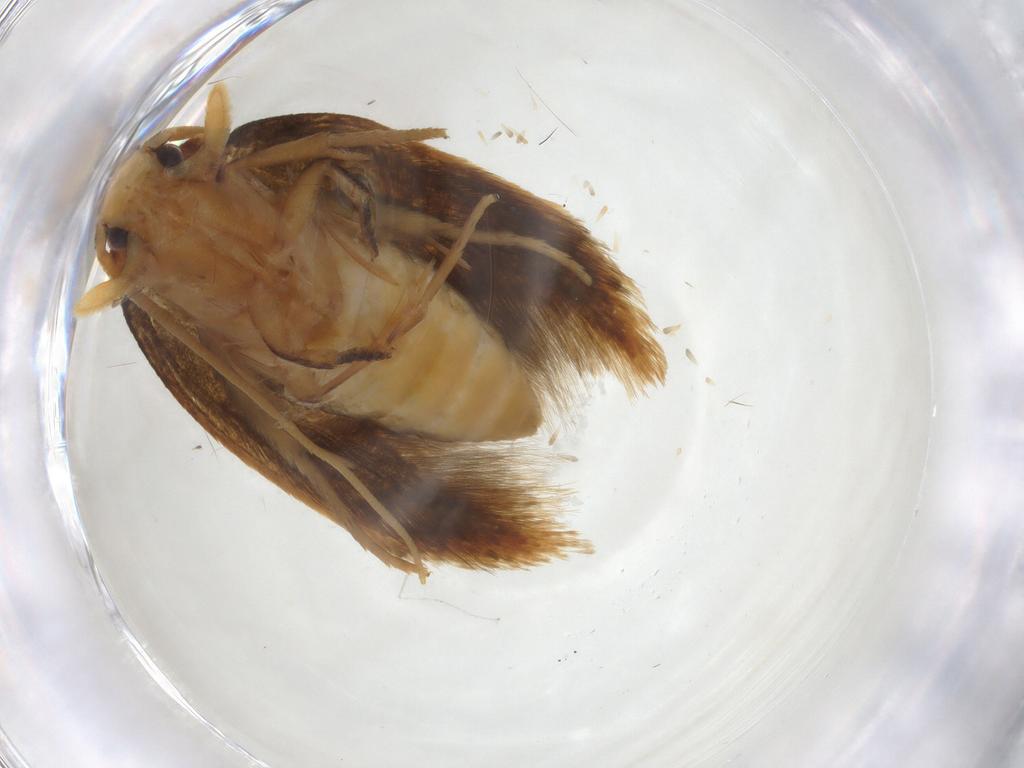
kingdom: Animalia
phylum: Arthropoda
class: Insecta
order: Lepidoptera
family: Tineidae
